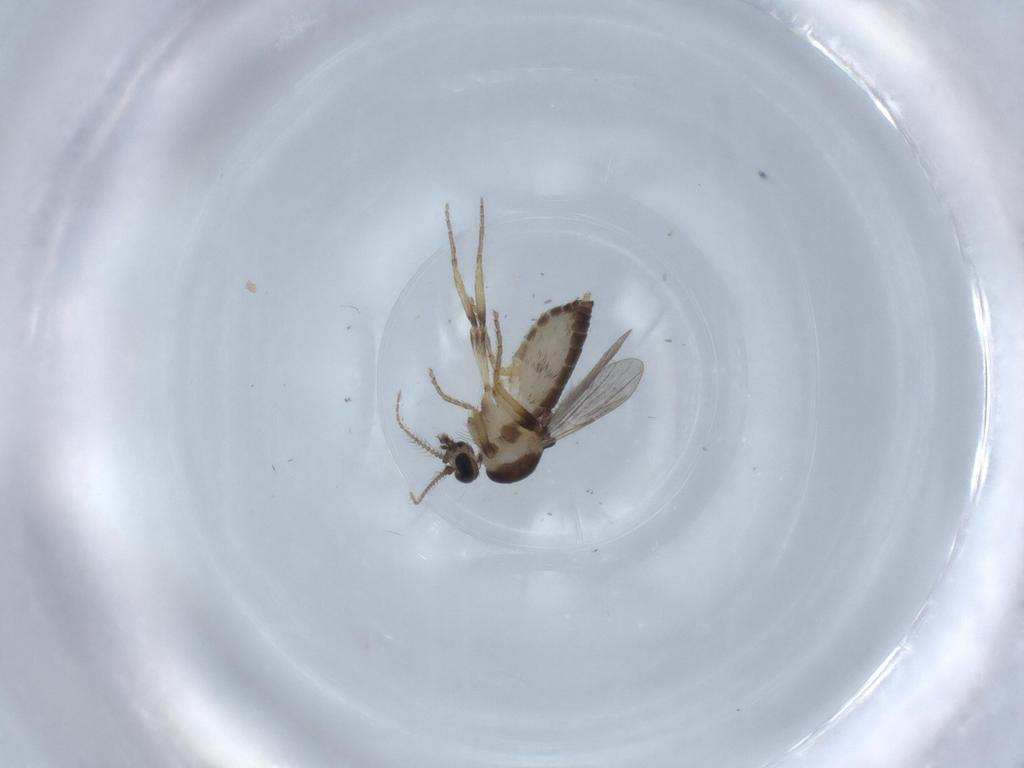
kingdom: Animalia
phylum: Arthropoda
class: Insecta
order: Diptera
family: Ceratopogonidae
